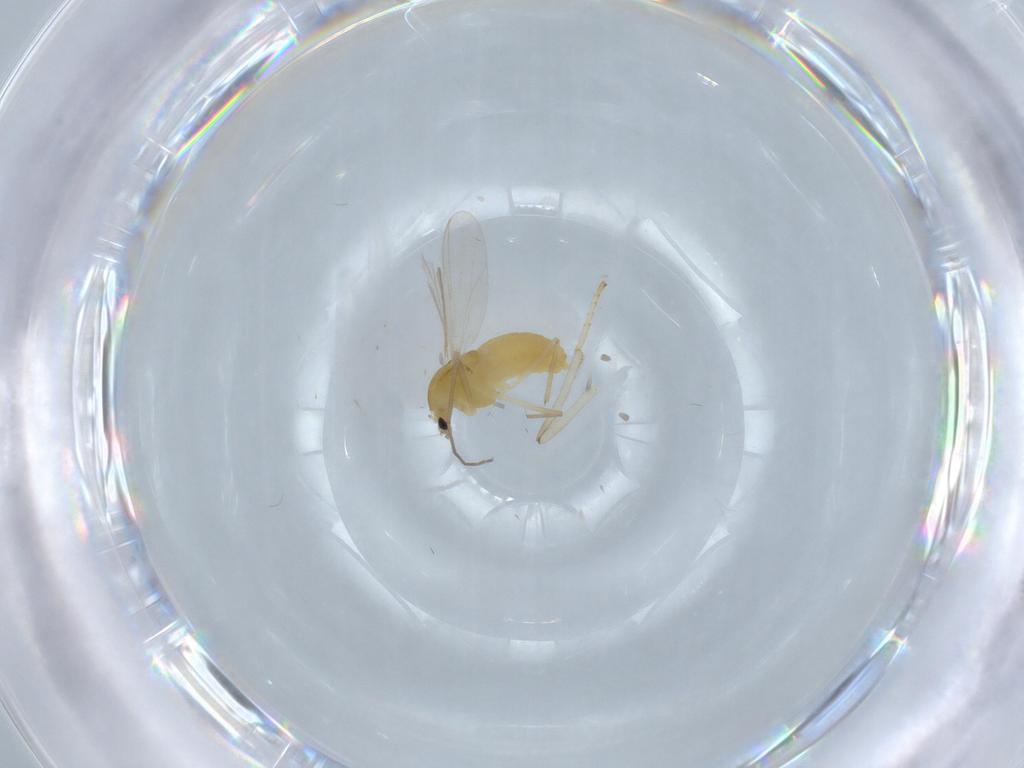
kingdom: Animalia
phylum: Arthropoda
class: Insecta
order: Diptera
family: Chironomidae
